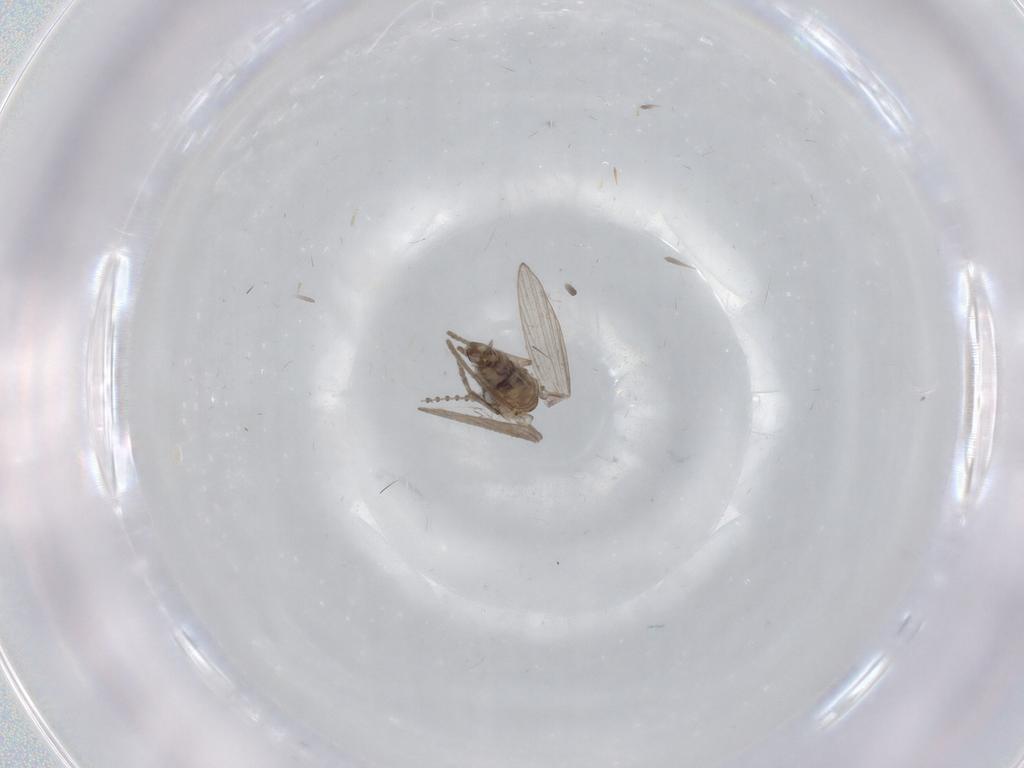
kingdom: Animalia
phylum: Arthropoda
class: Insecta
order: Diptera
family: Psychodidae
